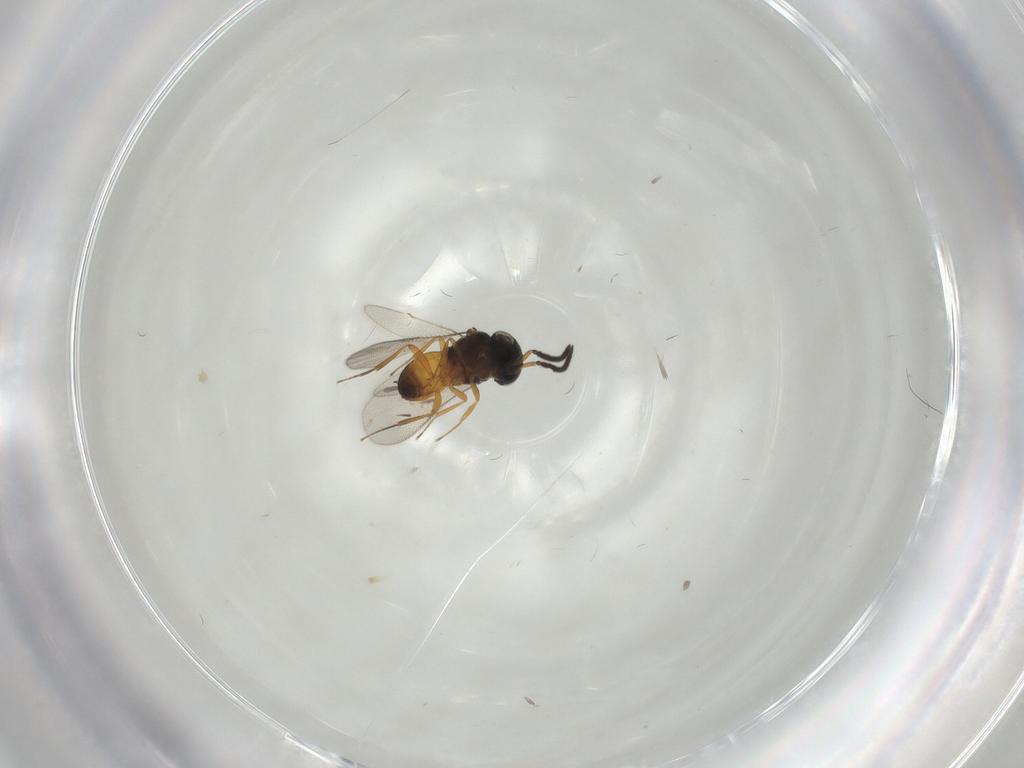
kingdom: Animalia
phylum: Arthropoda
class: Insecta
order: Hymenoptera
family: Scelionidae
